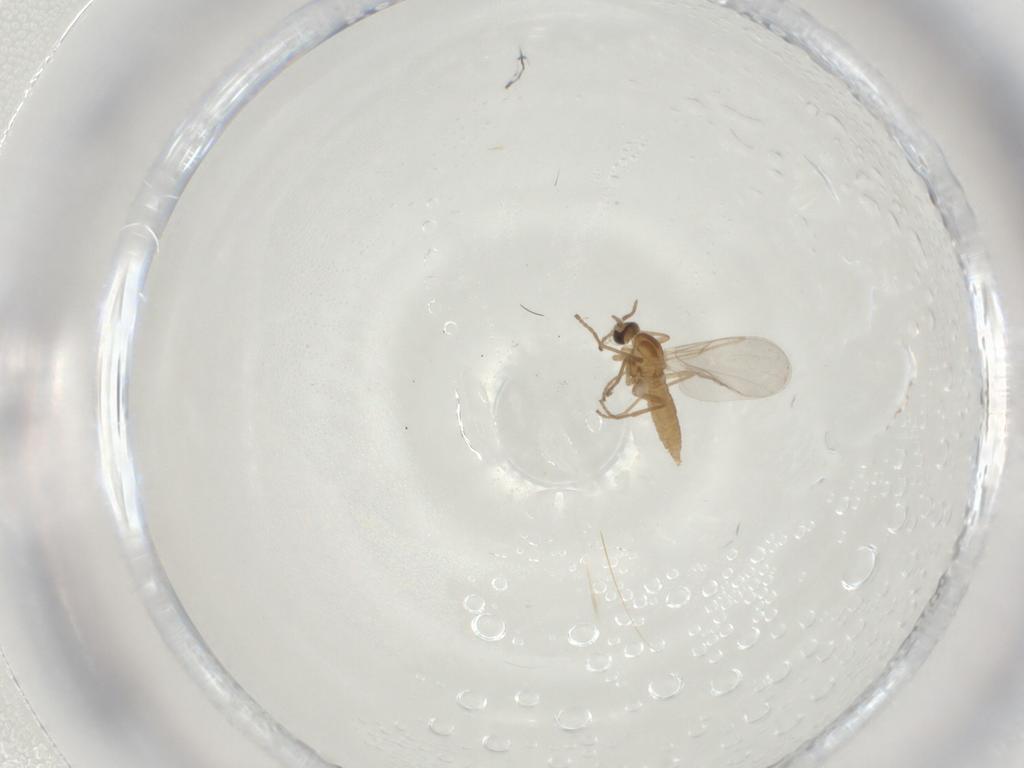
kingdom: Animalia
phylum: Arthropoda
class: Insecta
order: Diptera
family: Cecidomyiidae
